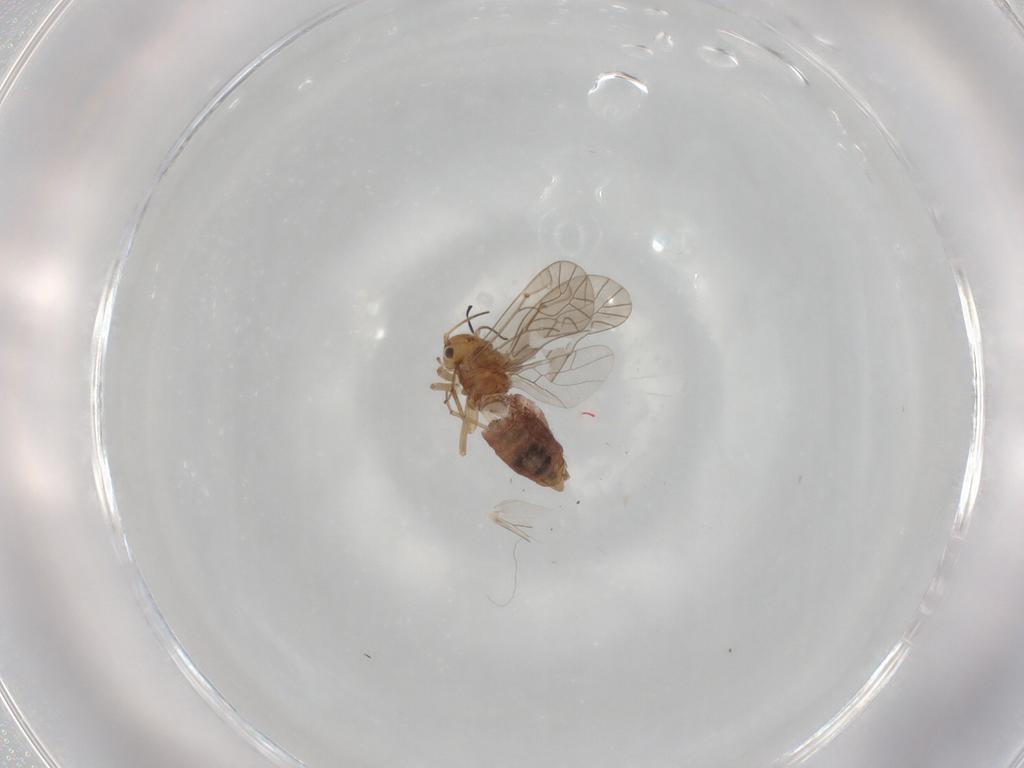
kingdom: Animalia
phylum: Arthropoda
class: Insecta
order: Psocodea
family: Lachesillidae
